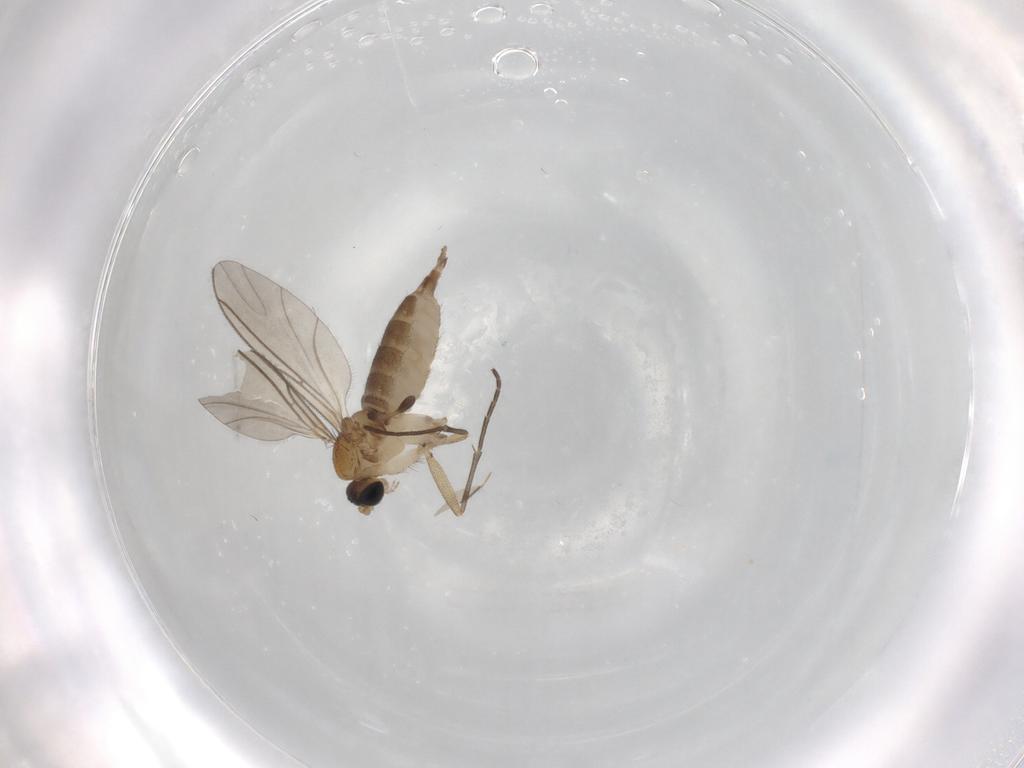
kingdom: Animalia
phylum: Arthropoda
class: Insecta
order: Diptera
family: Sciaridae
